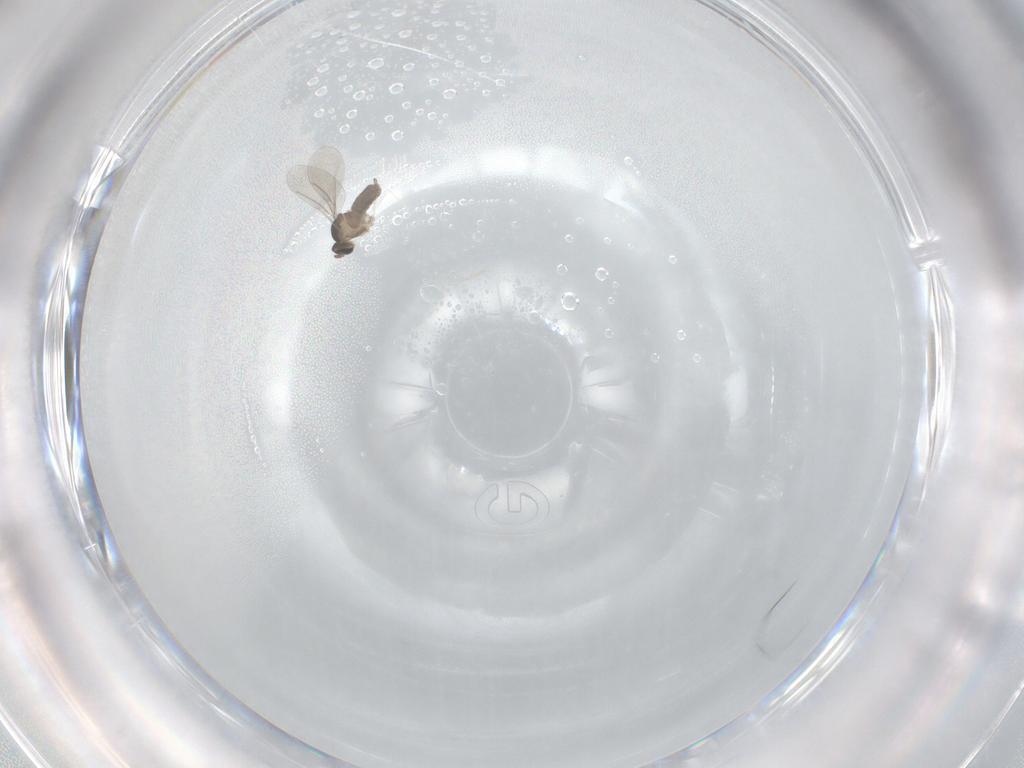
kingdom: Animalia
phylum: Arthropoda
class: Insecta
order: Diptera
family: Cecidomyiidae
